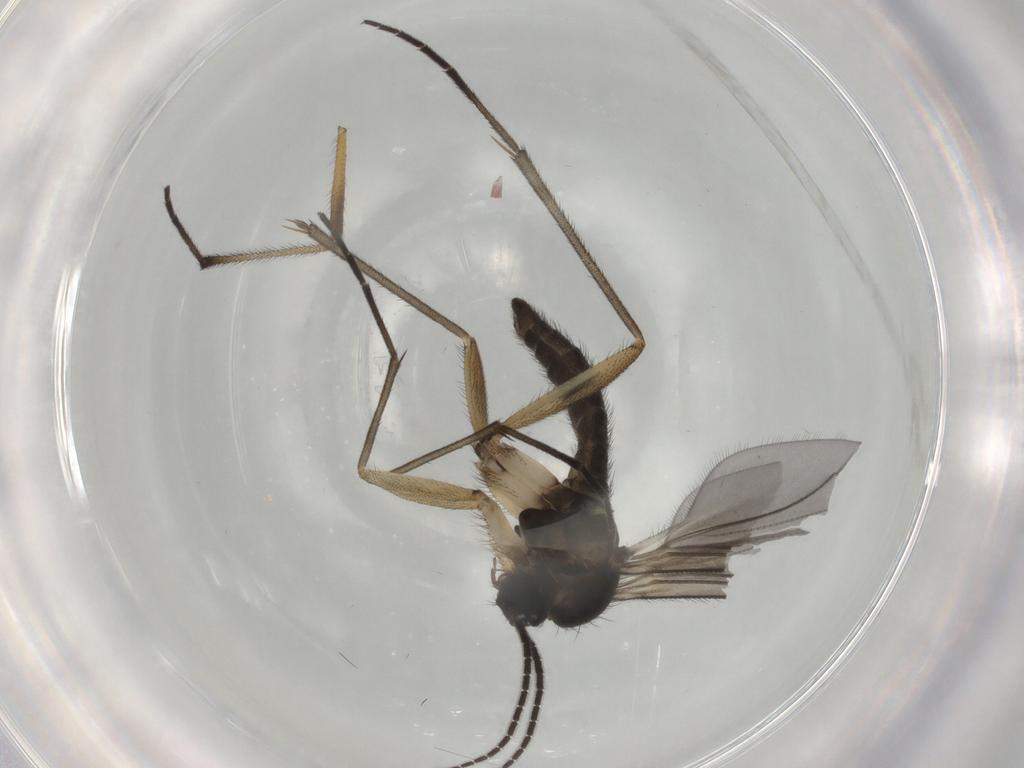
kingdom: Animalia
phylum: Arthropoda
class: Insecta
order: Diptera
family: Sciaridae
